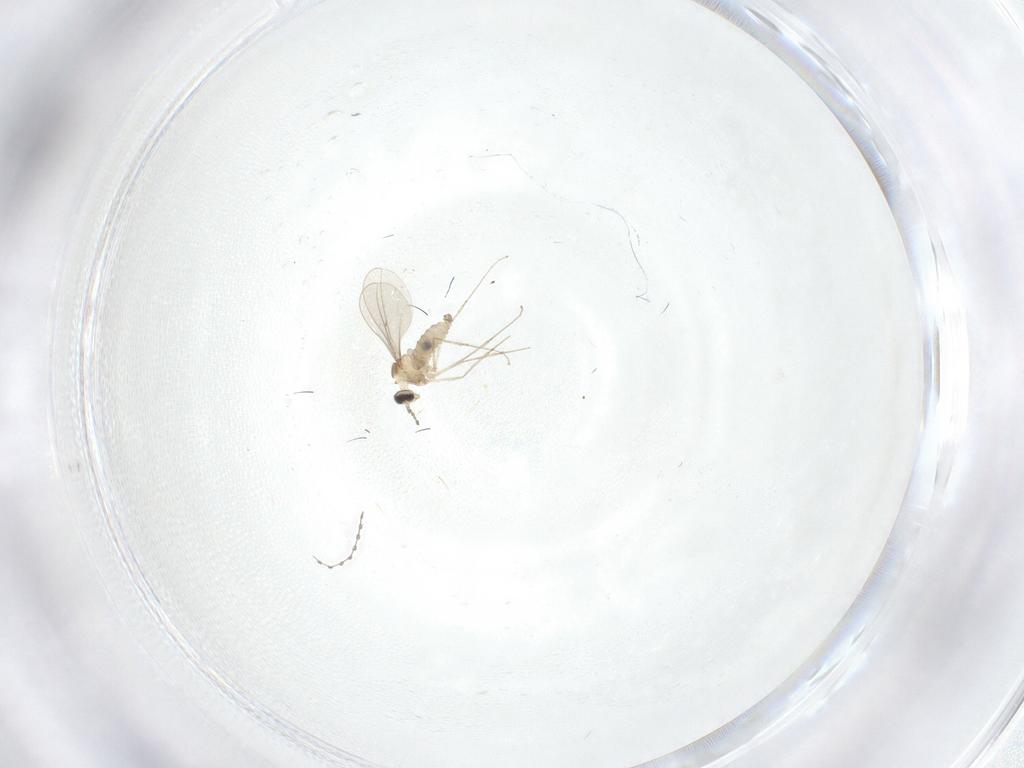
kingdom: Animalia
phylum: Arthropoda
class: Insecta
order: Diptera
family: Cecidomyiidae
